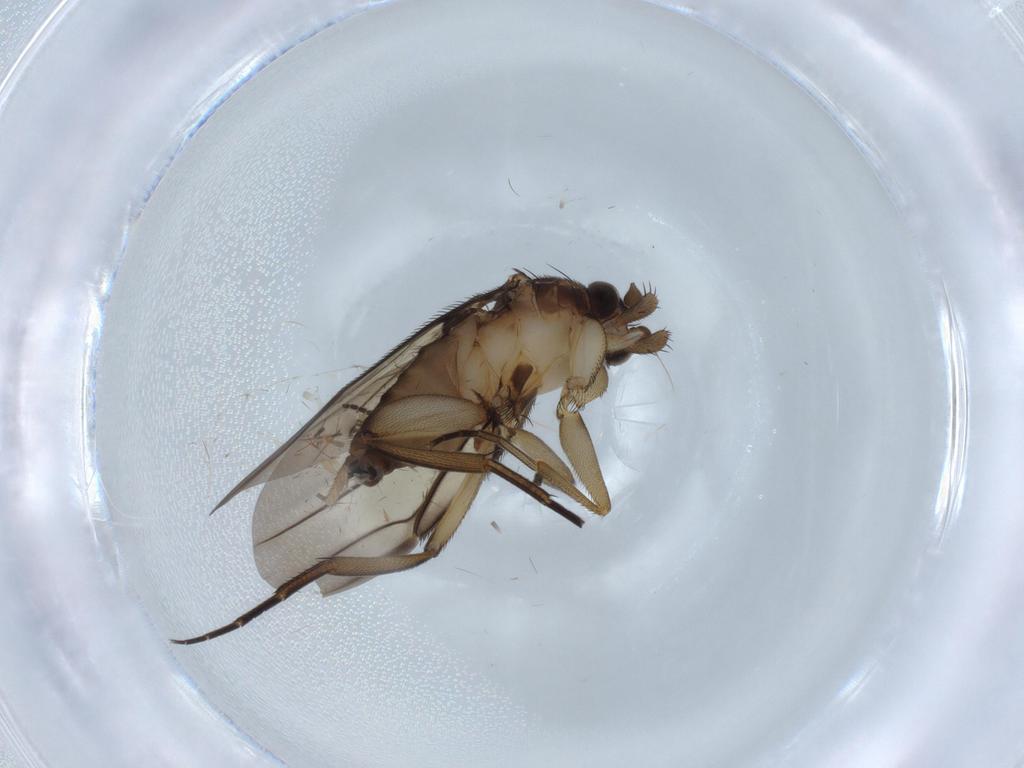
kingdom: Animalia
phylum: Arthropoda
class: Insecta
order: Diptera
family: Phoridae
